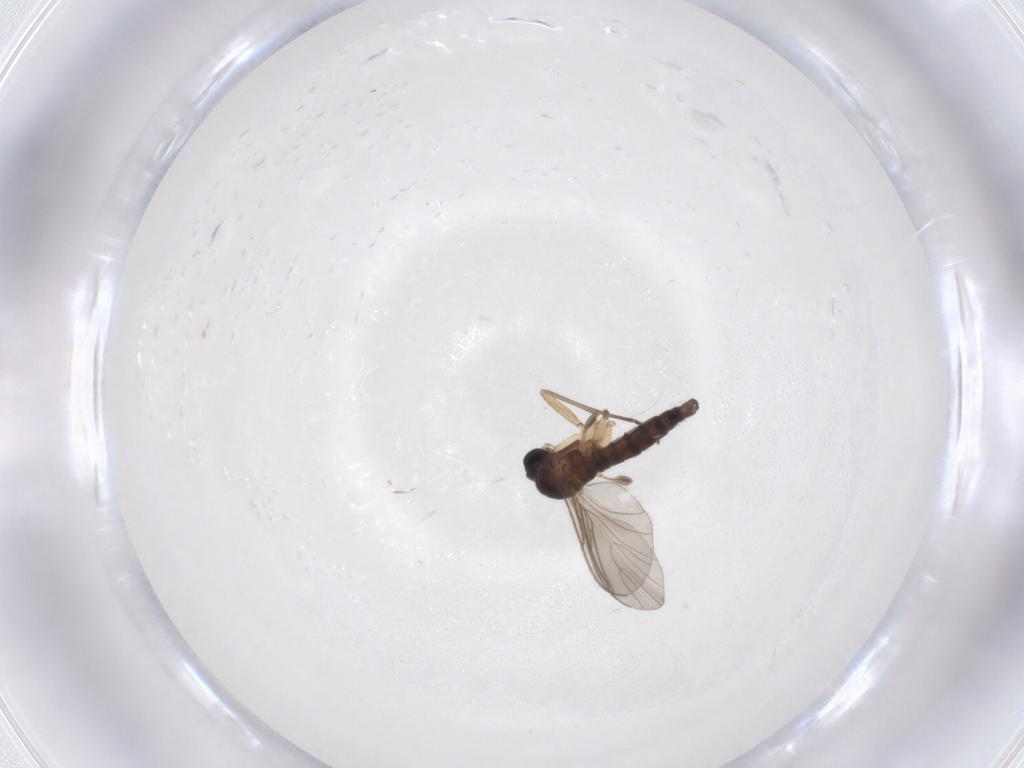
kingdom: Animalia
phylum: Arthropoda
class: Insecta
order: Diptera
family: Sciaridae
